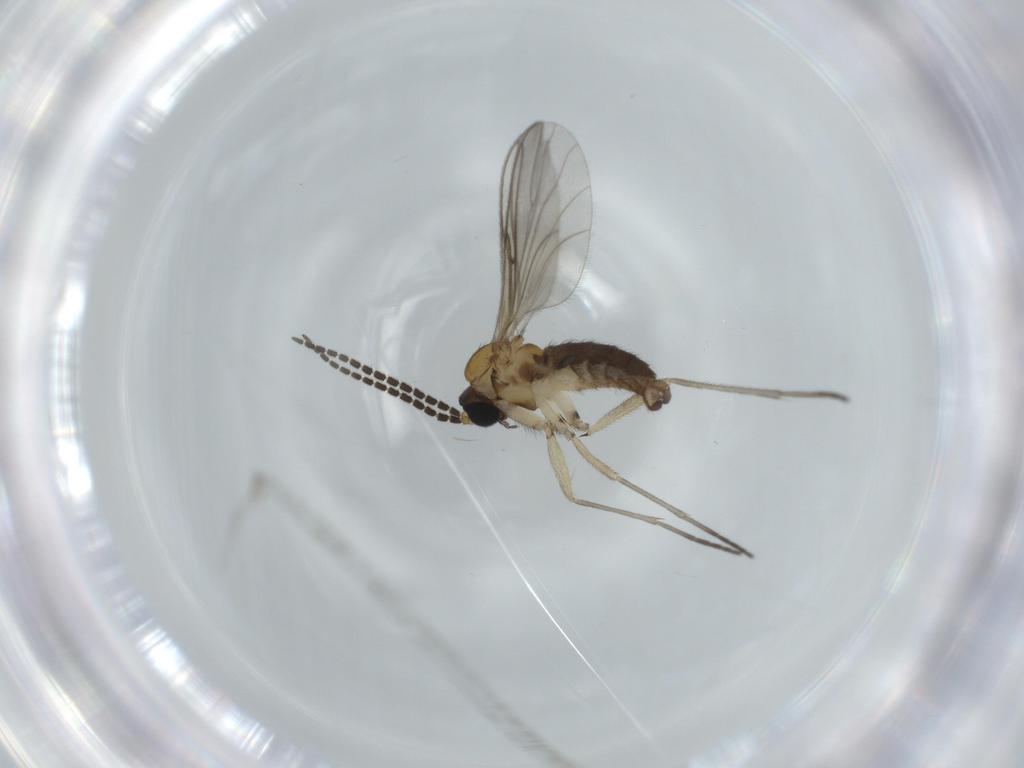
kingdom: Animalia
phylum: Arthropoda
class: Insecta
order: Diptera
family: Sciaridae
